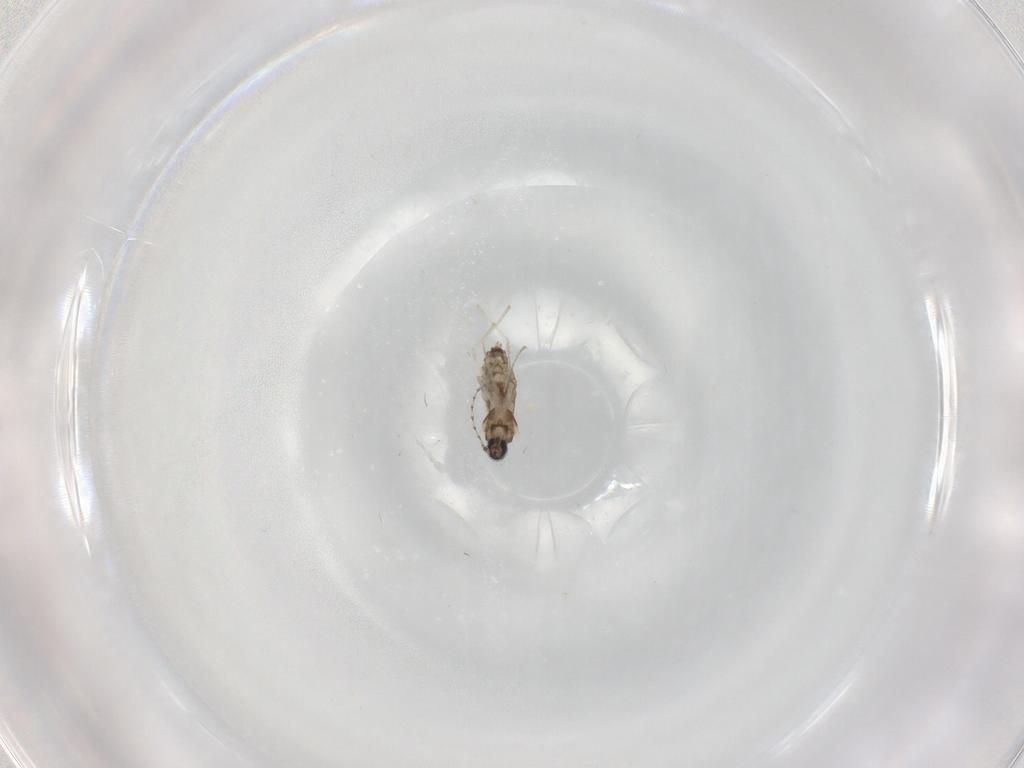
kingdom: Animalia
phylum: Arthropoda
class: Insecta
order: Diptera
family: Cecidomyiidae
